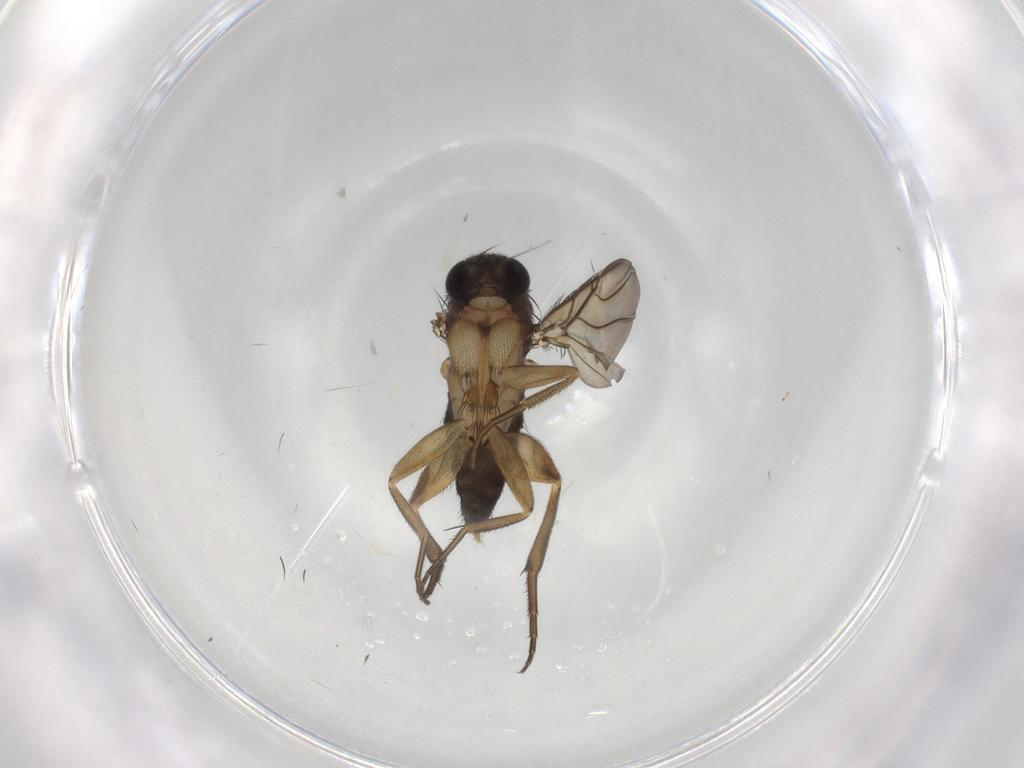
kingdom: Animalia
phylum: Arthropoda
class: Insecta
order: Diptera
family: Phoridae
